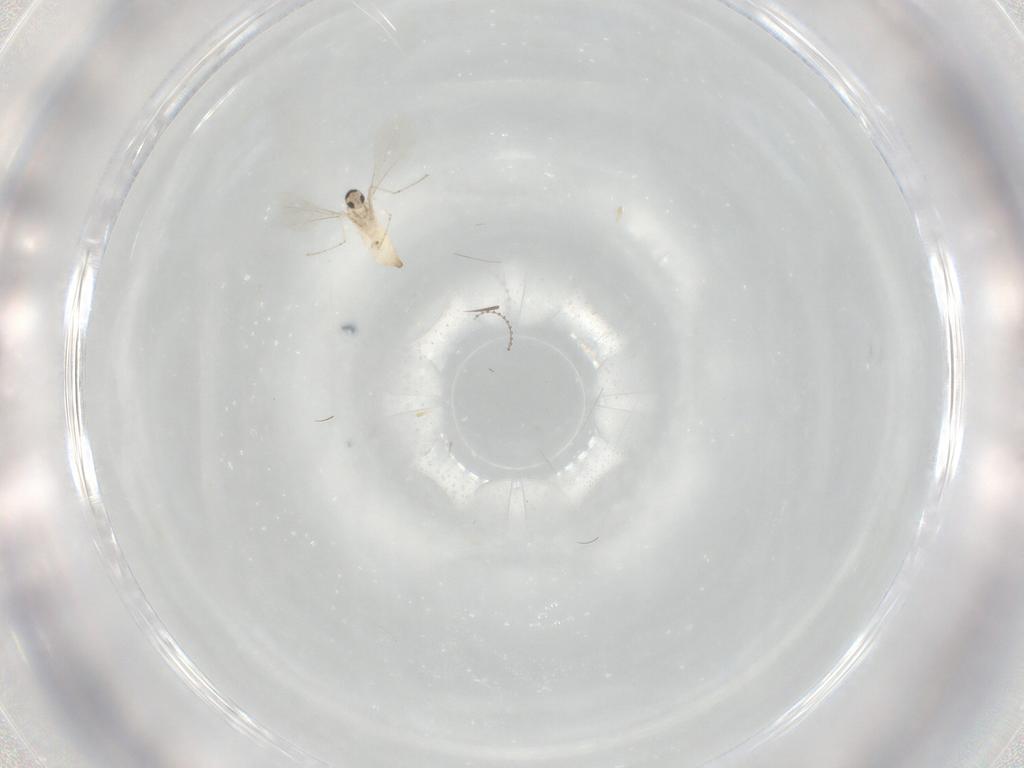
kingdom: Animalia
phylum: Arthropoda
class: Insecta
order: Diptera
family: Cecidomyiidae
